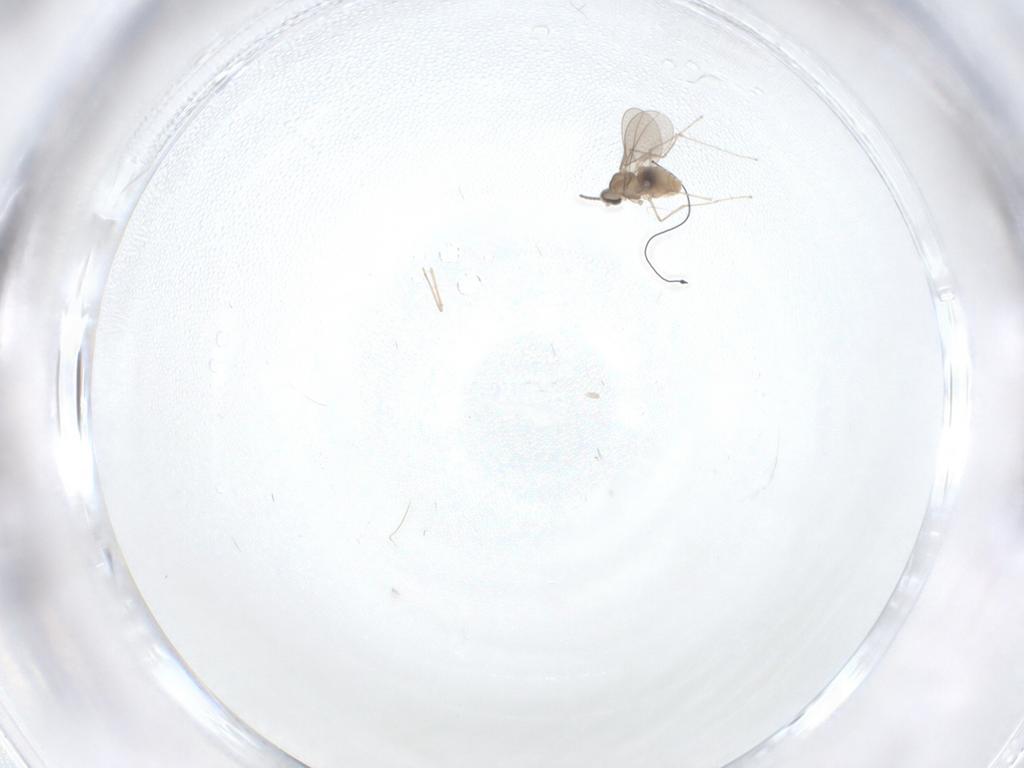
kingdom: Animalia
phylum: Arthropoda
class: Insecta
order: Diptera
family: Cecidomyiidae
